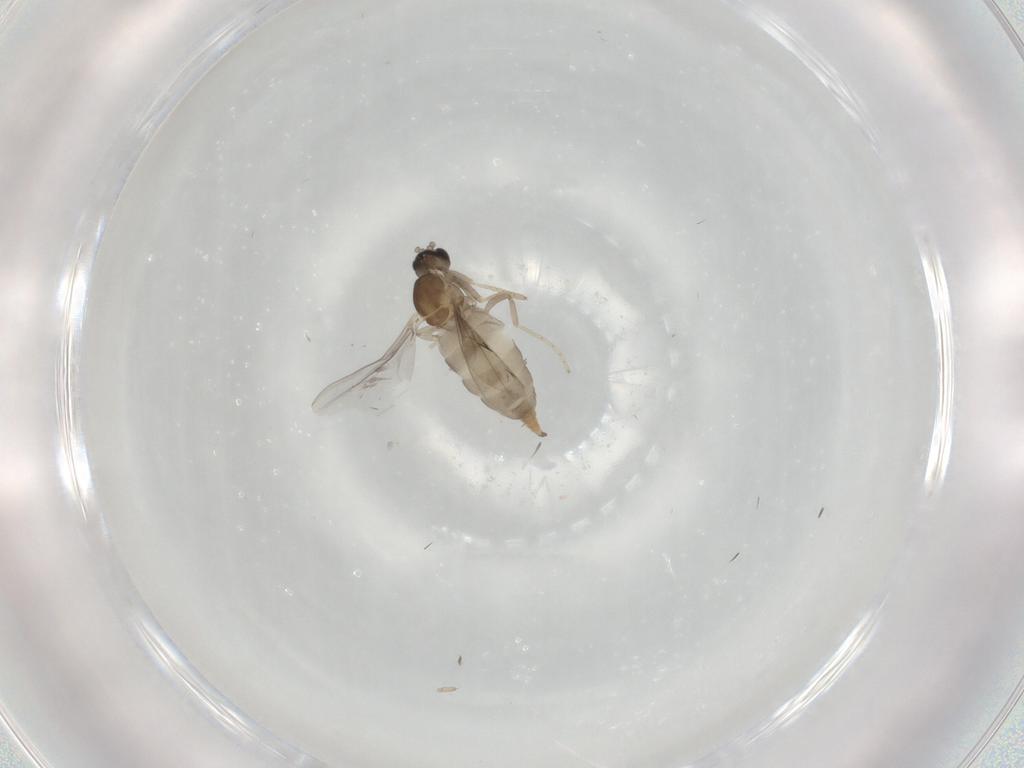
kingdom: Animalia
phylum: Arthropoda
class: Insecta
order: Diptera
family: Cecidomyiidae
